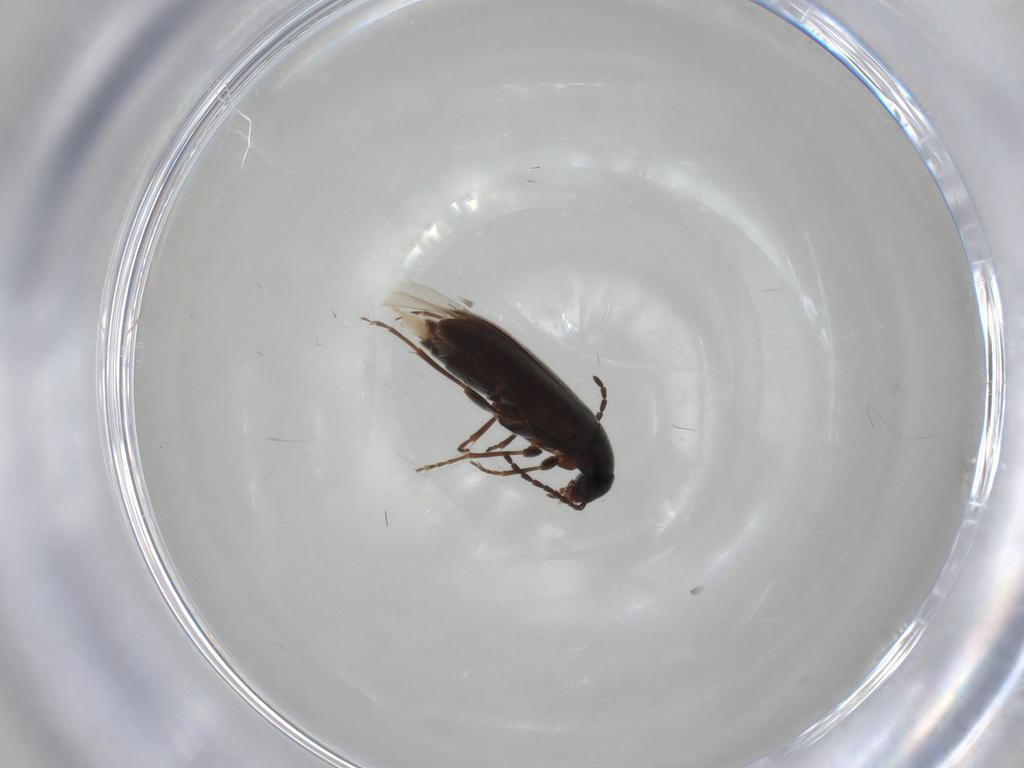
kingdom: Animalia
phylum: Arthropoda
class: Insecta
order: Coleoptera
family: Scraptiidae
